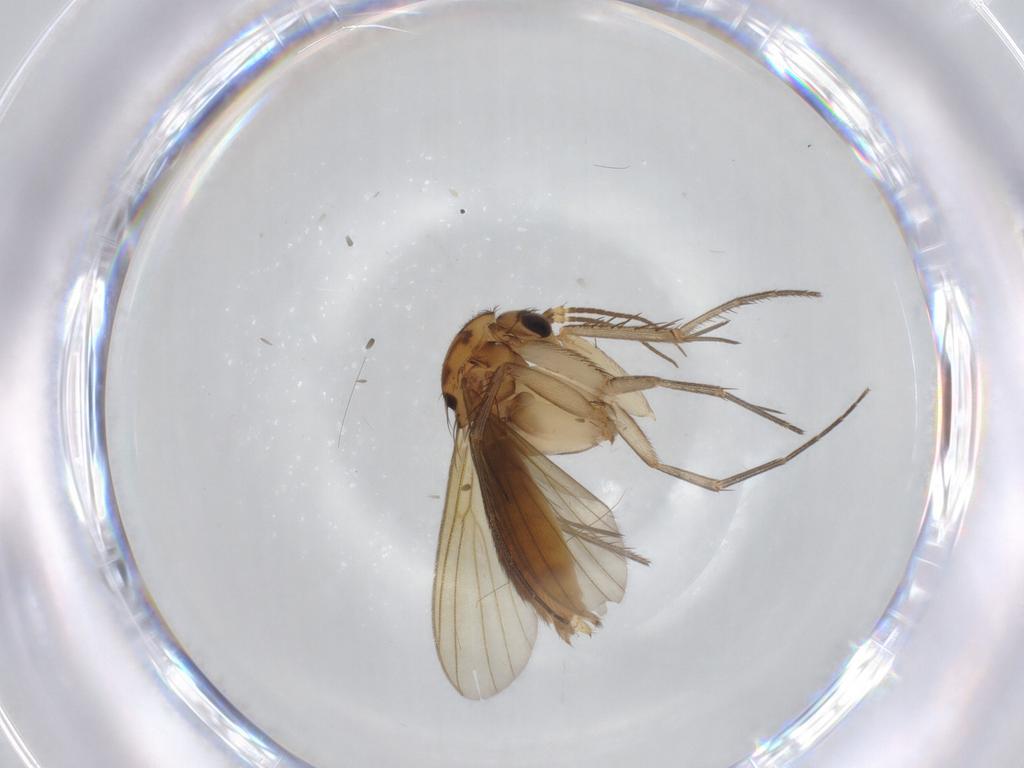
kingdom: Animalia
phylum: Arthropoda
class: Insecta
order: Diptera
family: Mycetophilidae
